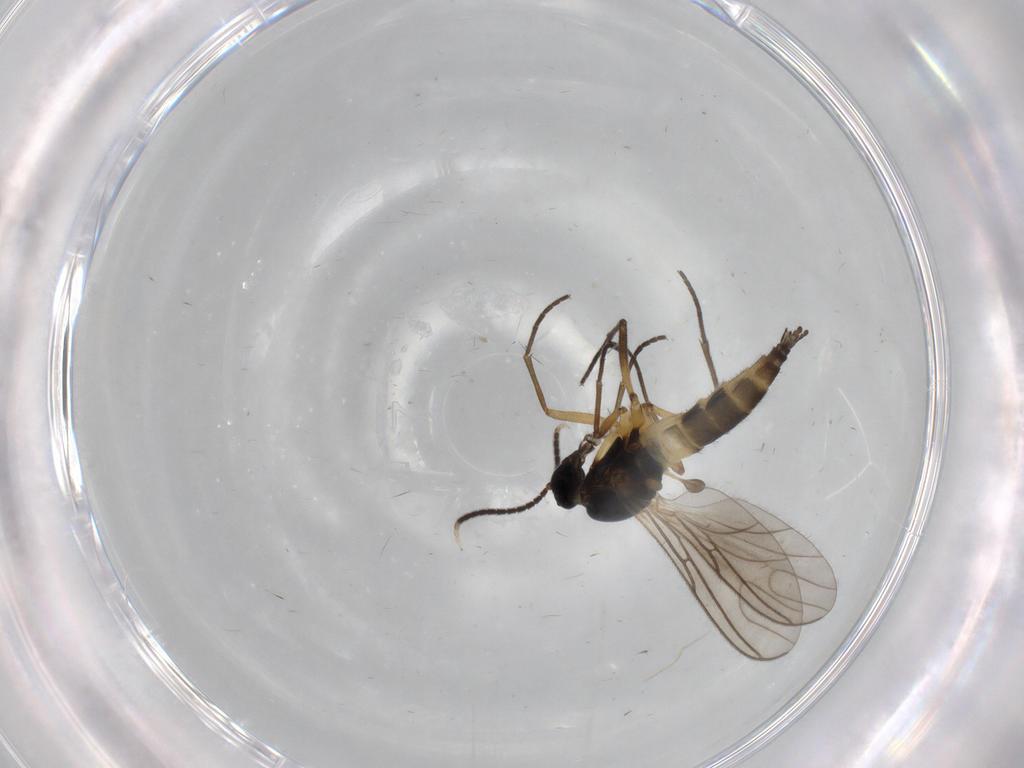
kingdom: Animalia
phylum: Arthropoda
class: Insecta
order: Diptera
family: Sciaridae
